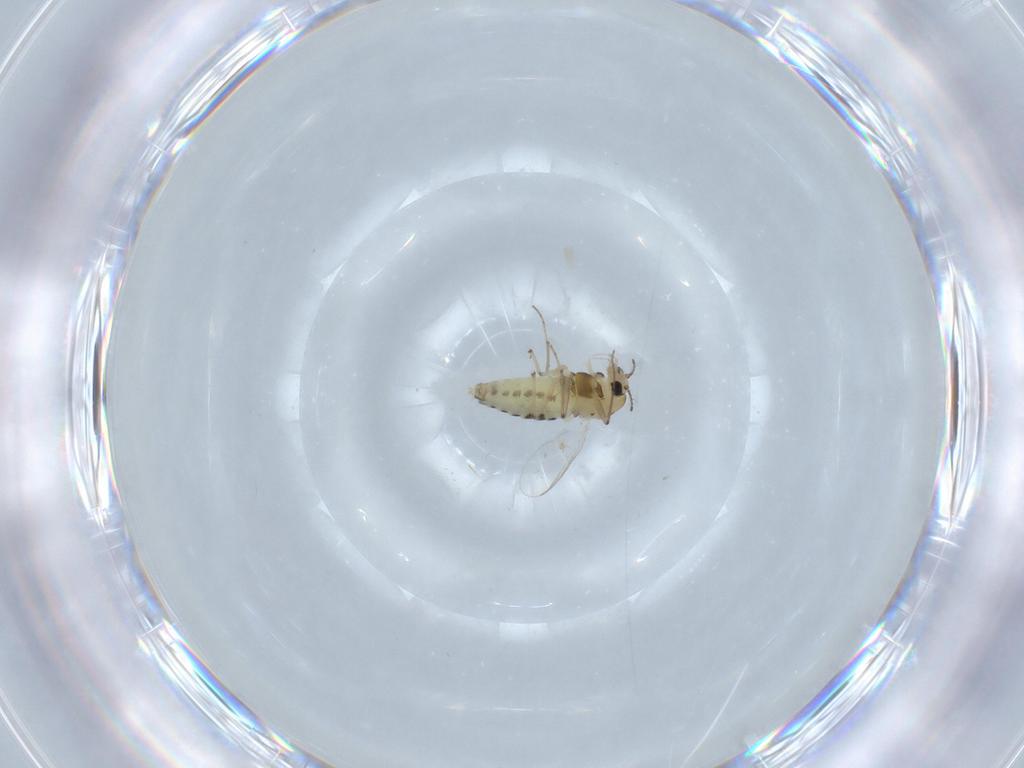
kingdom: Animalia
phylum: Arthropoda
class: Insecta
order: Diptera
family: Chironomidae
